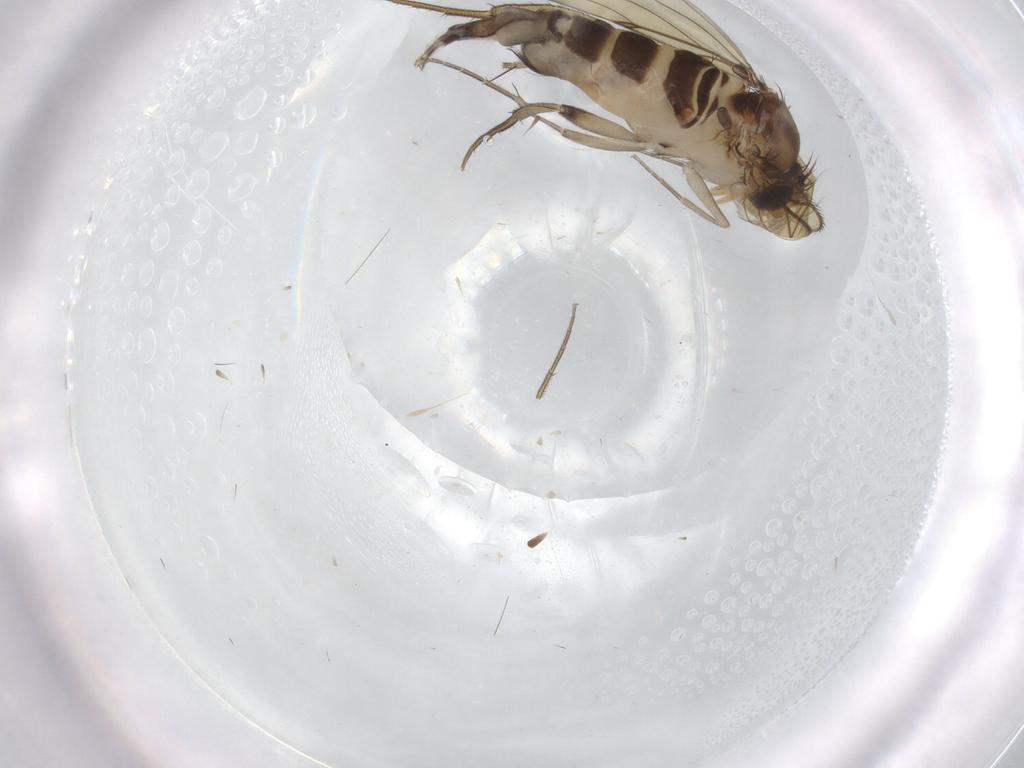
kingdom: Animalia
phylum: Arthropoda
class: Insecta
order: Diptera
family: Phoridae
